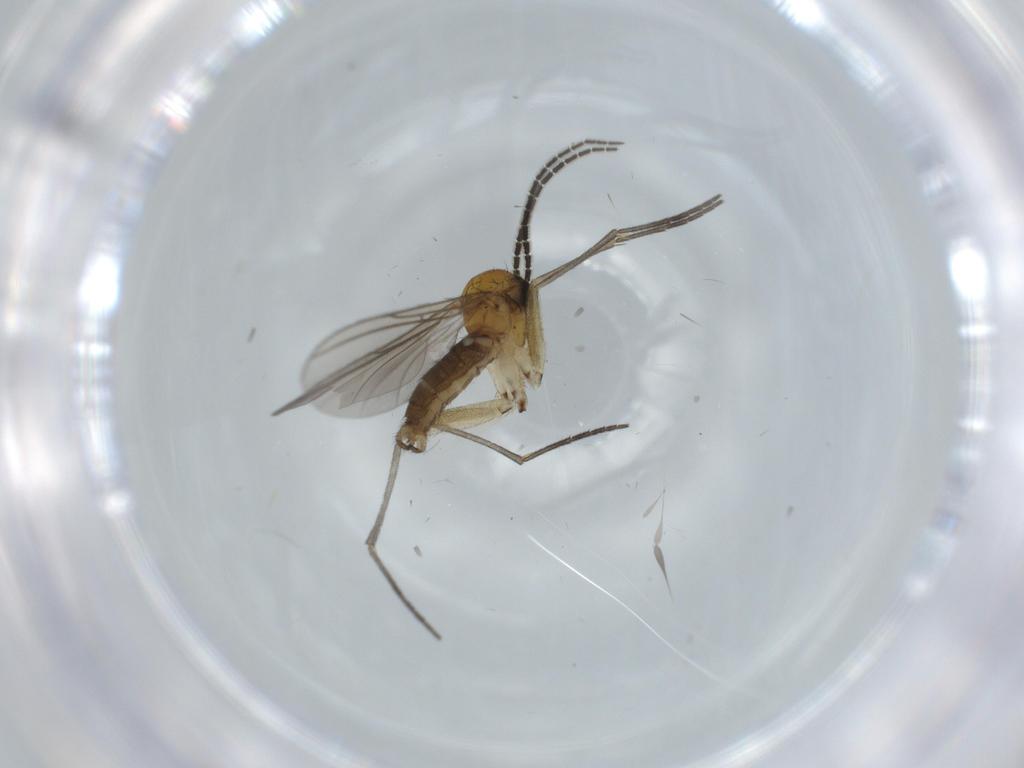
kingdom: Animalia
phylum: Arthropoda
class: Insecta
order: Diptera
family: Sciaridae
